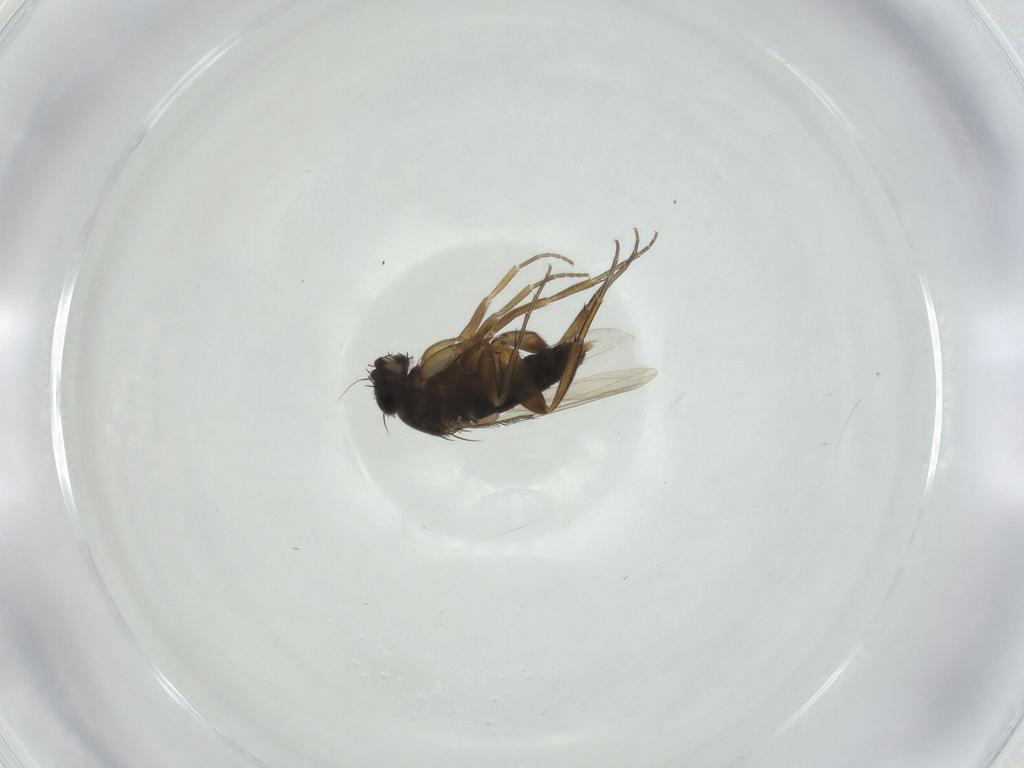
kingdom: Animalia
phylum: Arthropoda
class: Insecta
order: Diptera
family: Phoridae
